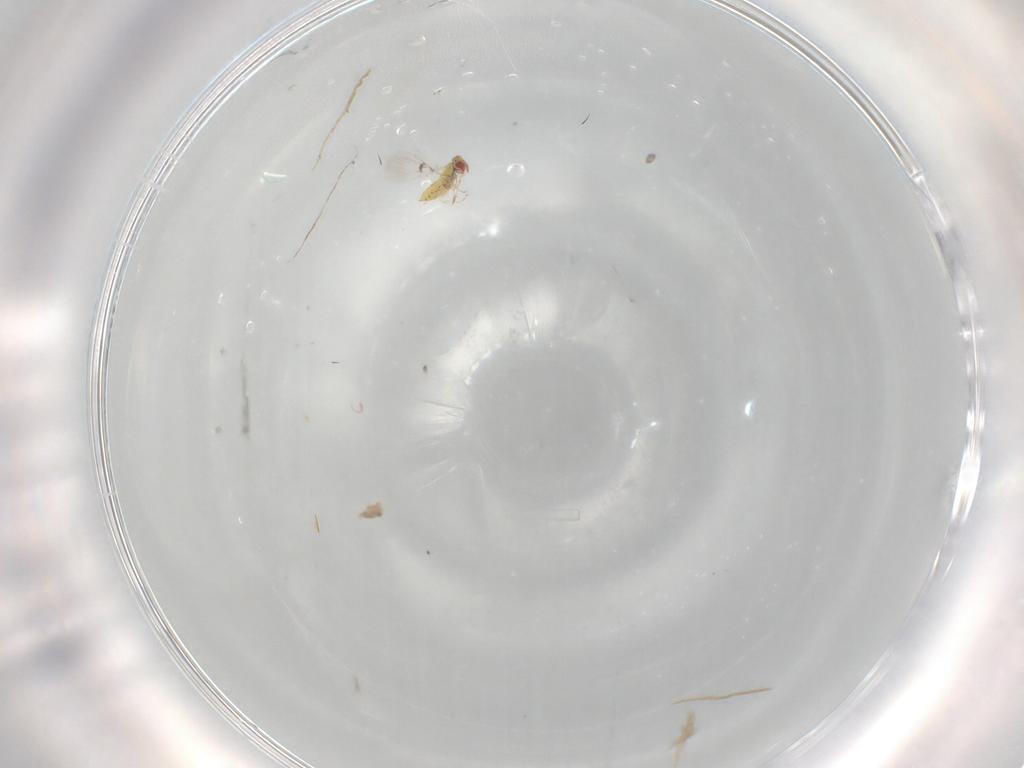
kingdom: Animalia
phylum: Arthropoda
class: Insecta
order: Hymenoptera
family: Trichogrammatidae
